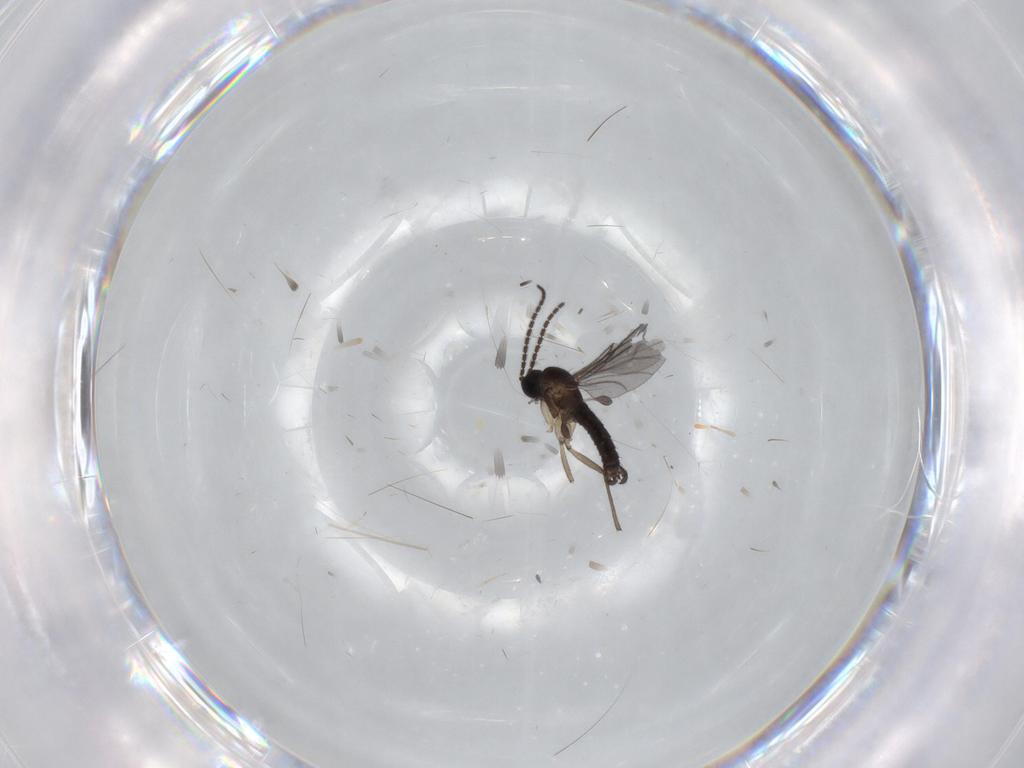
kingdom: Animalia
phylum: Arthropoda
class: Insecta
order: Diptera
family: Sciaridae
